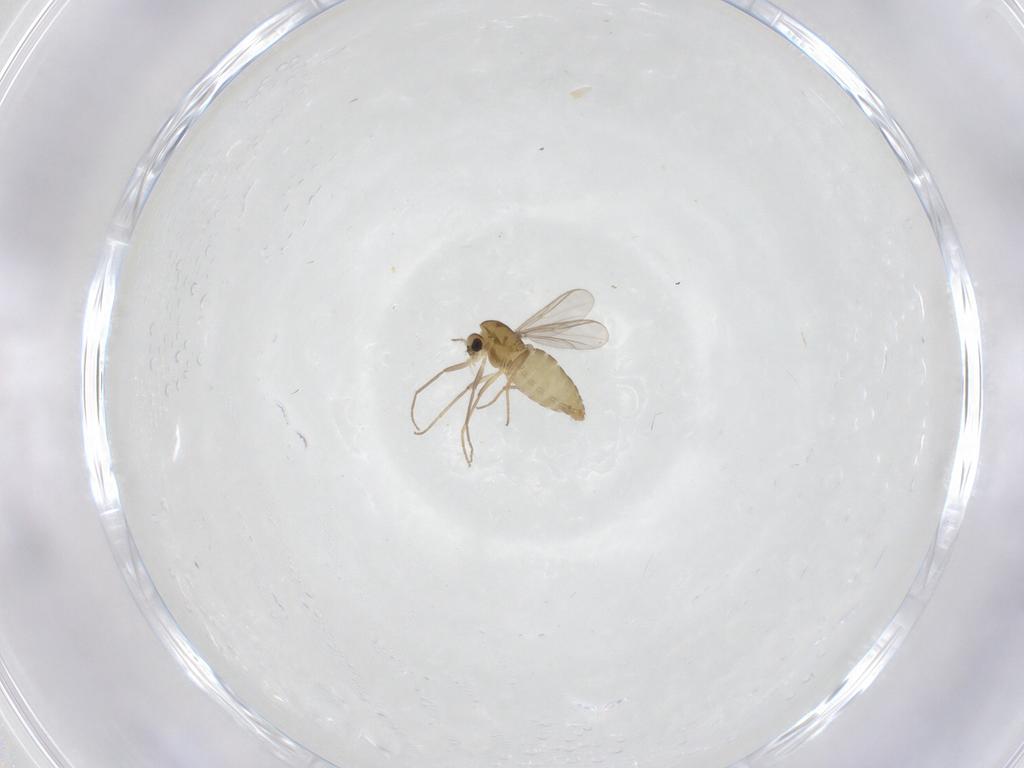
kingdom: Animalia
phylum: Arthropoda
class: Insecta
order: Diptera
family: Chironomidae
